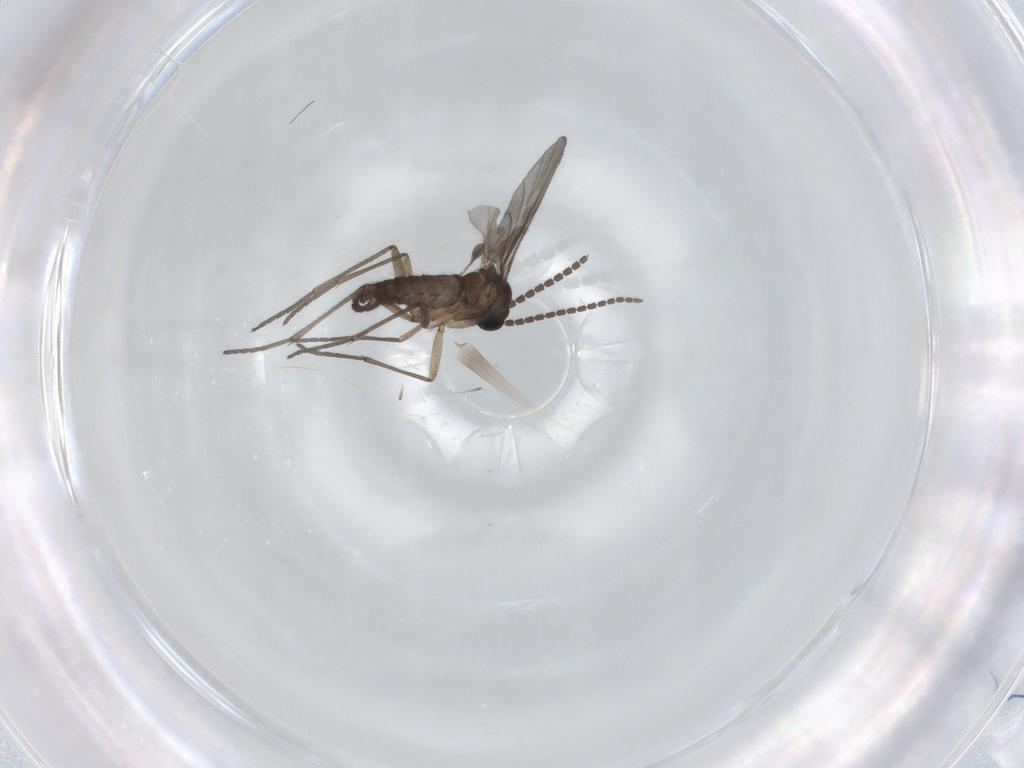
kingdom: Animalia
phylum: Arthropoda
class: Insecta
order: Diptera
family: Sciaridae
